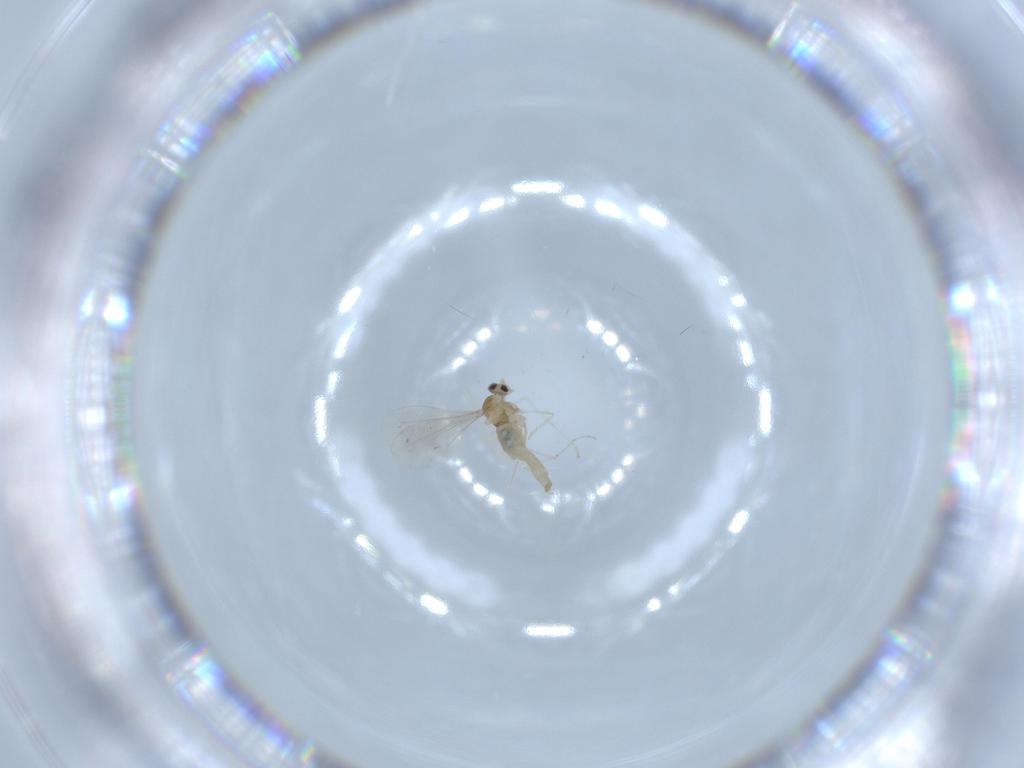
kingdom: Animalia
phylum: Arthropoda
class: Insecta
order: Diptera
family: Cecidomyiidae
